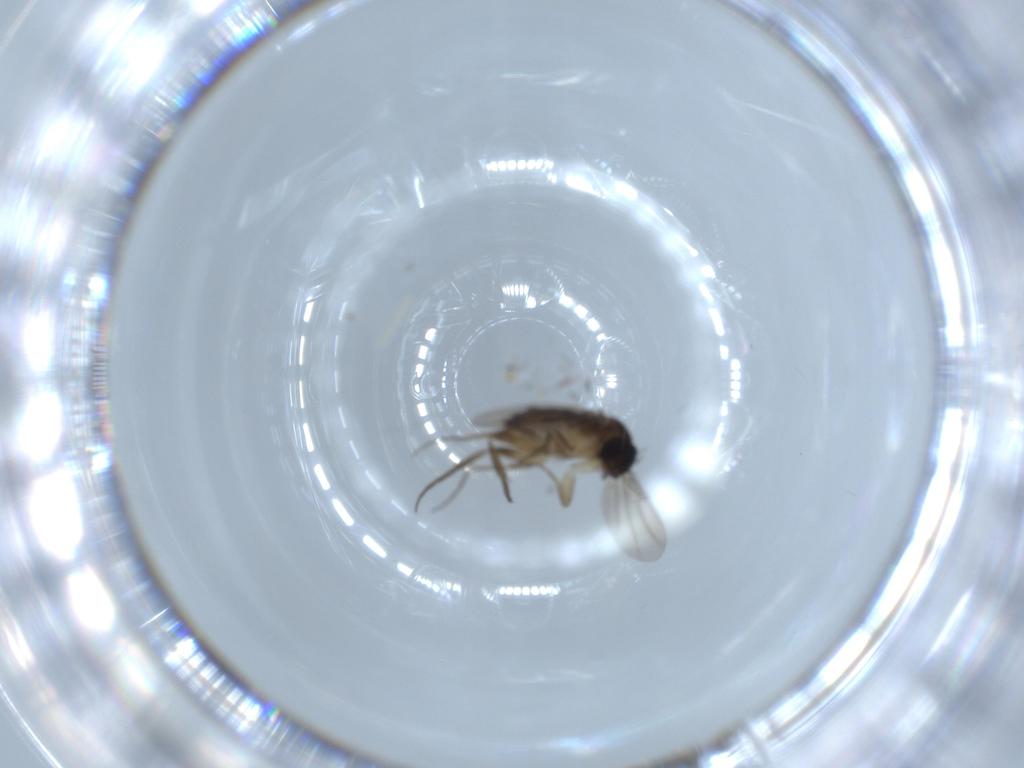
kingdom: Animalia
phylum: Arthropoda
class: Insecta
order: Diptera
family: Phoridae
